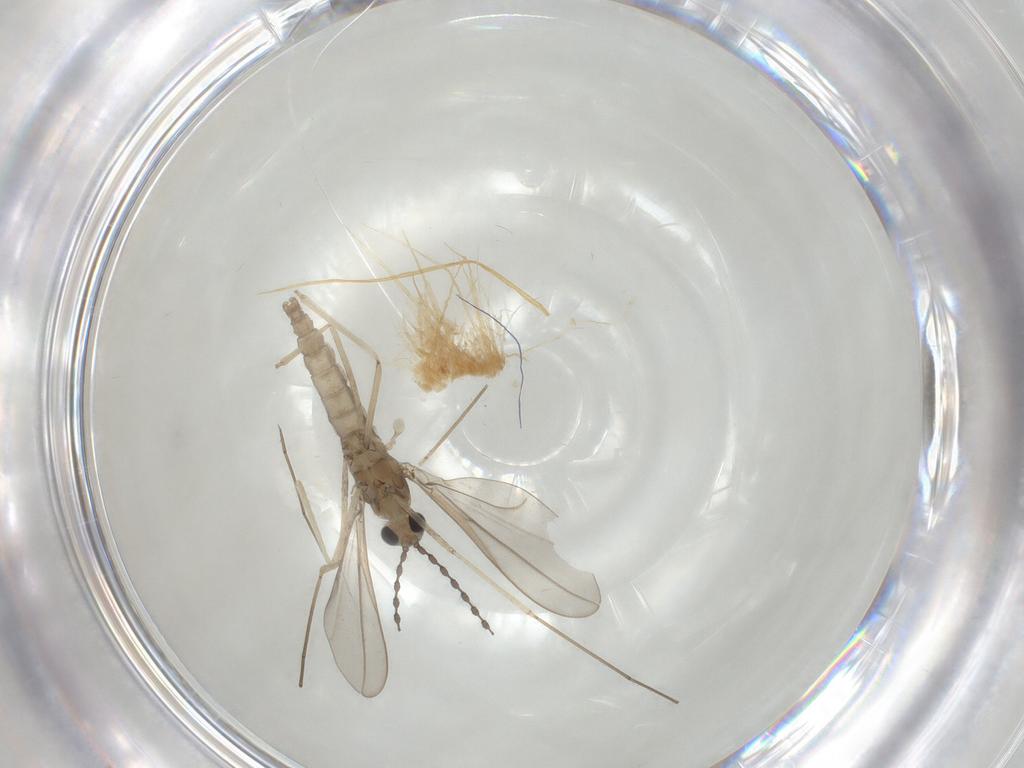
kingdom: Animalia
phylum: Arthropoda
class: Insecta
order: Diptera
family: Cecidomyiidae
